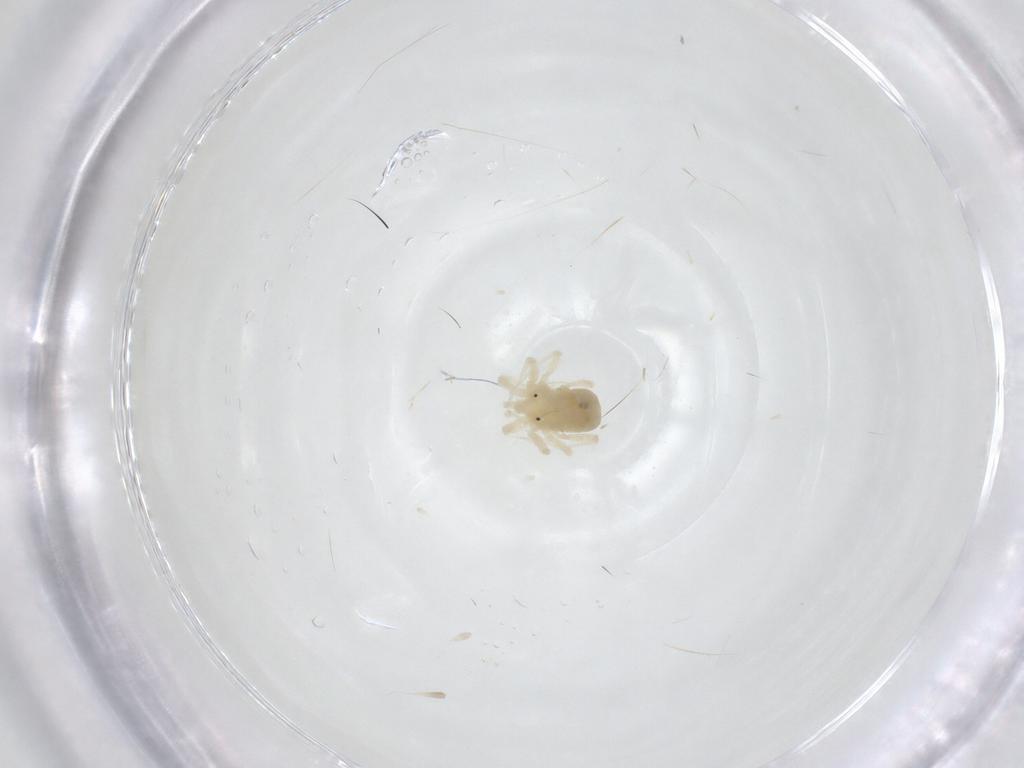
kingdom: Animalia
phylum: Arthropoda
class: Arachnida
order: Trombidiformes
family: Anystidae
